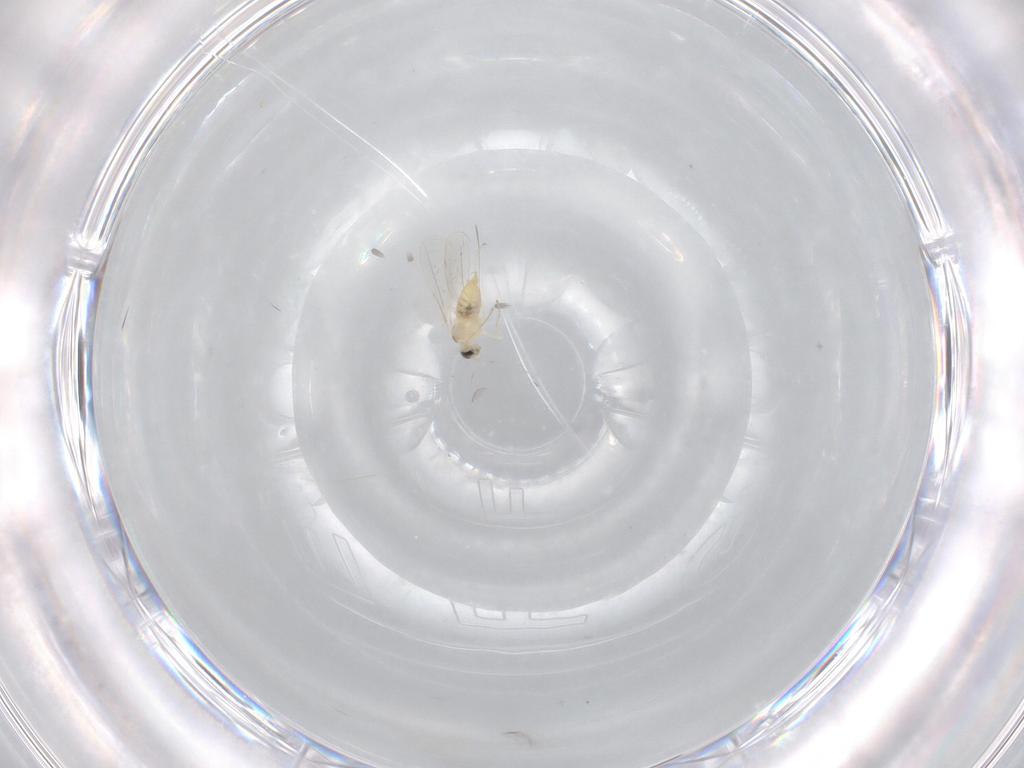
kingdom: Animalia
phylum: Arthropoda
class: Insecta
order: Diptera
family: Cecidomyiidae
